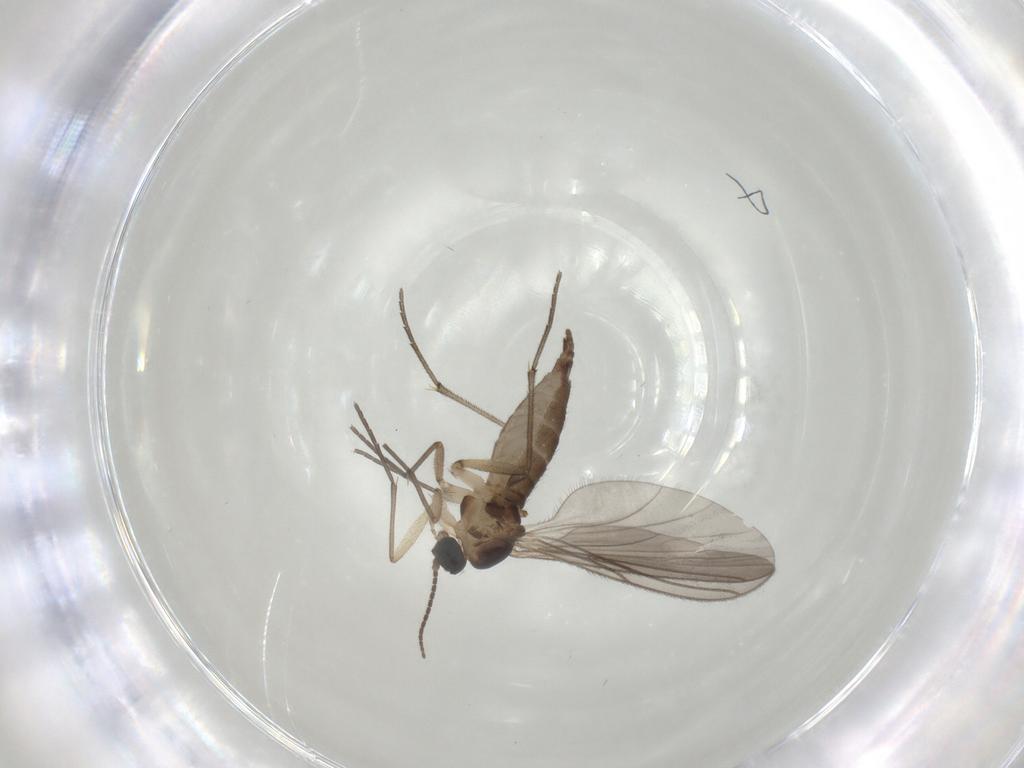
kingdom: Animalia
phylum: Arthropoda
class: Insecta
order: Diptera
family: Sciaridae
